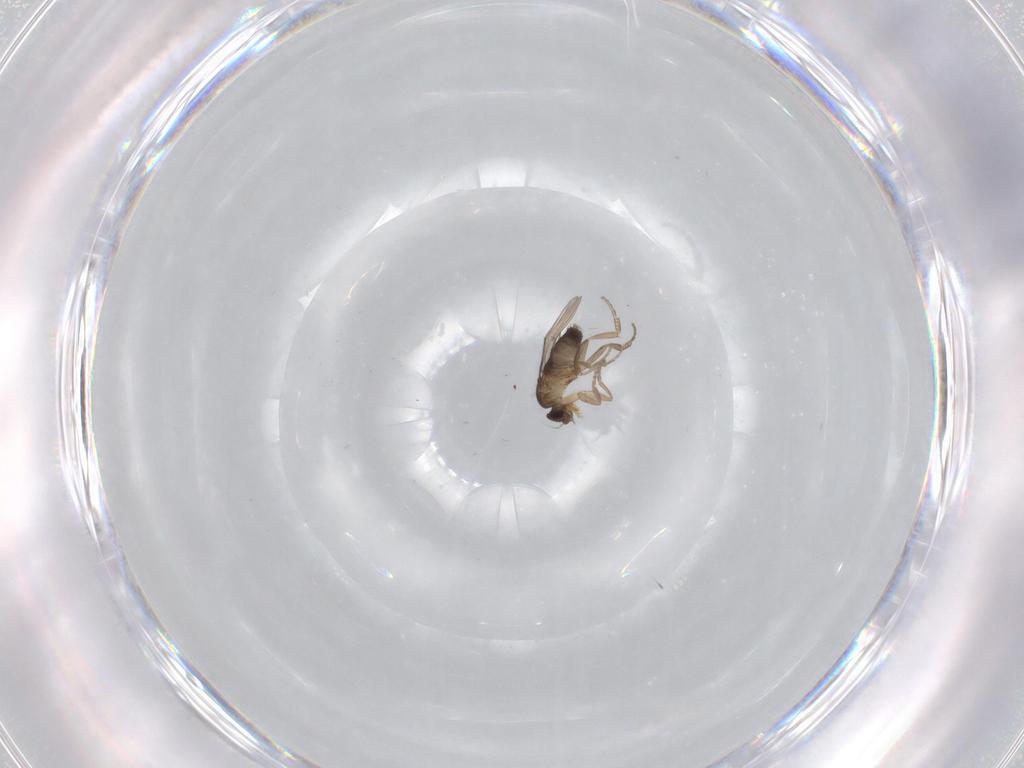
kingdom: Animalia
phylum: Arthropoda
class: Insecta
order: Diptera
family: Phoridae
